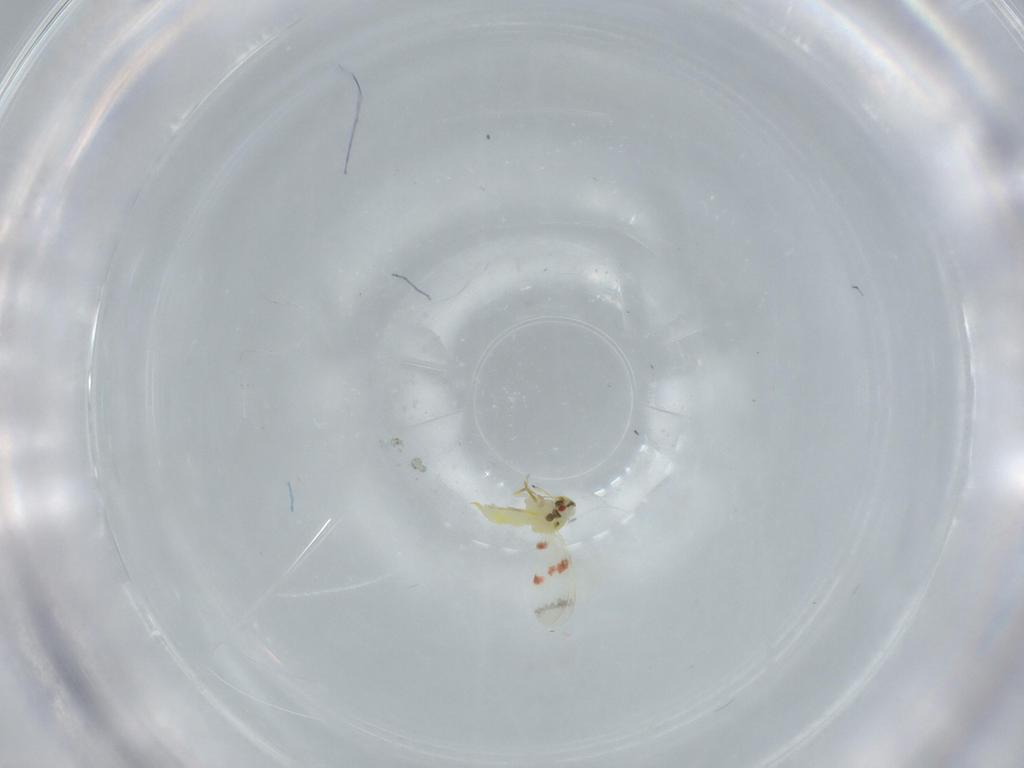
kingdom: Animalia
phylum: Arthropoda
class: Insecta
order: Hemiptera
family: Aleyrodidae
